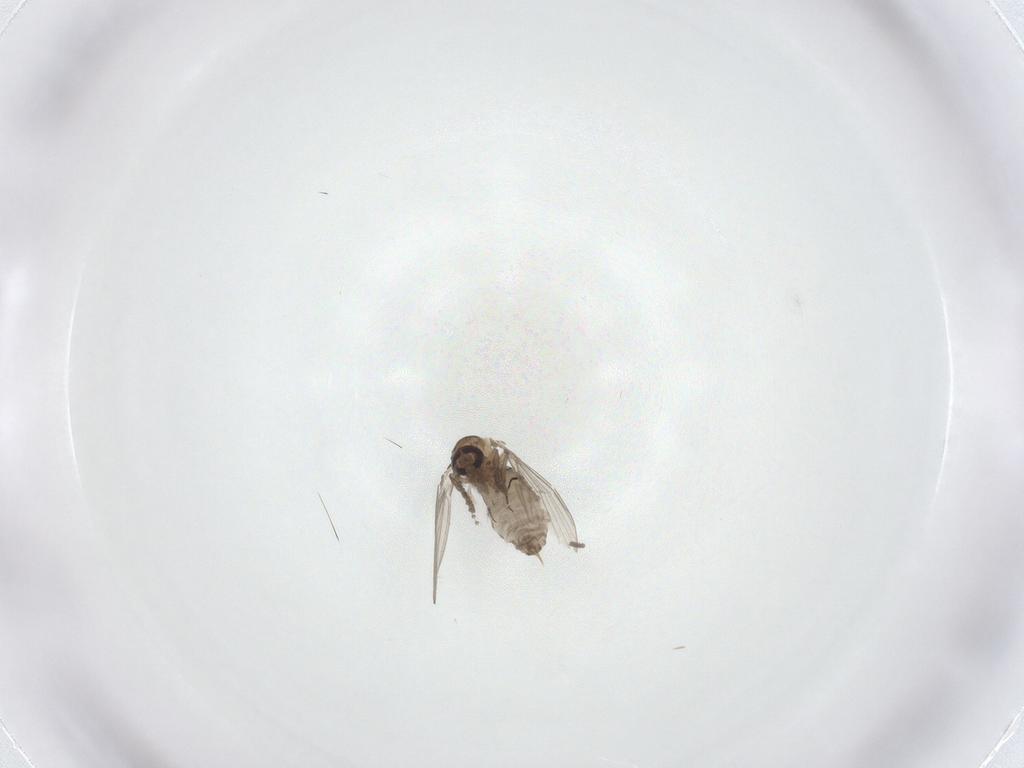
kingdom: Animalia
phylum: Arthropoda
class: Insecta
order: Diptera
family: Psychodidae
